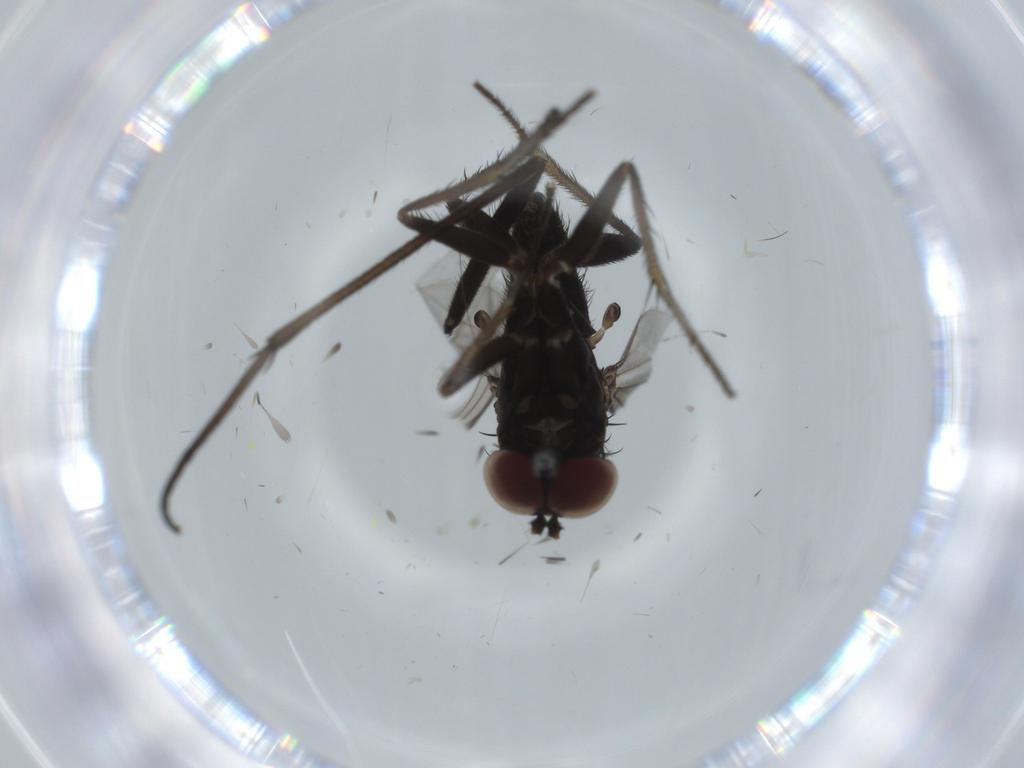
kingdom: Animalia
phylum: Arthropoda
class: Insecta
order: Diptera
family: Dolichopodidae
